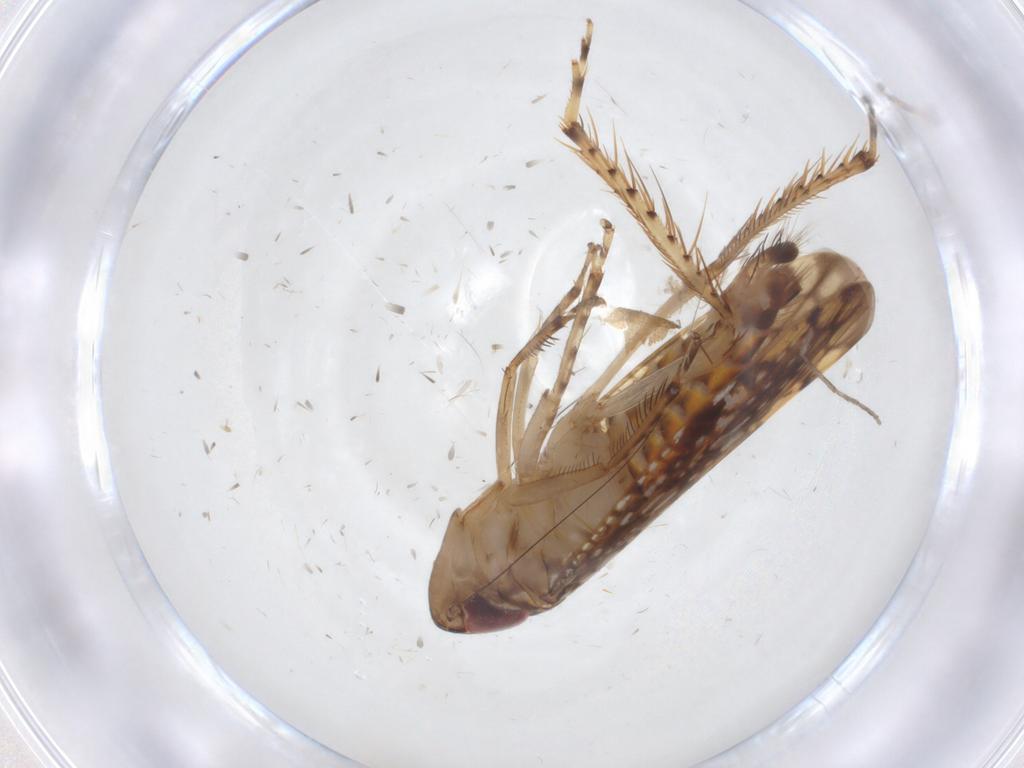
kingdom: Animalia
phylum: Arthropoda
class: Insecta
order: Hemiptera
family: Cicadellidae
